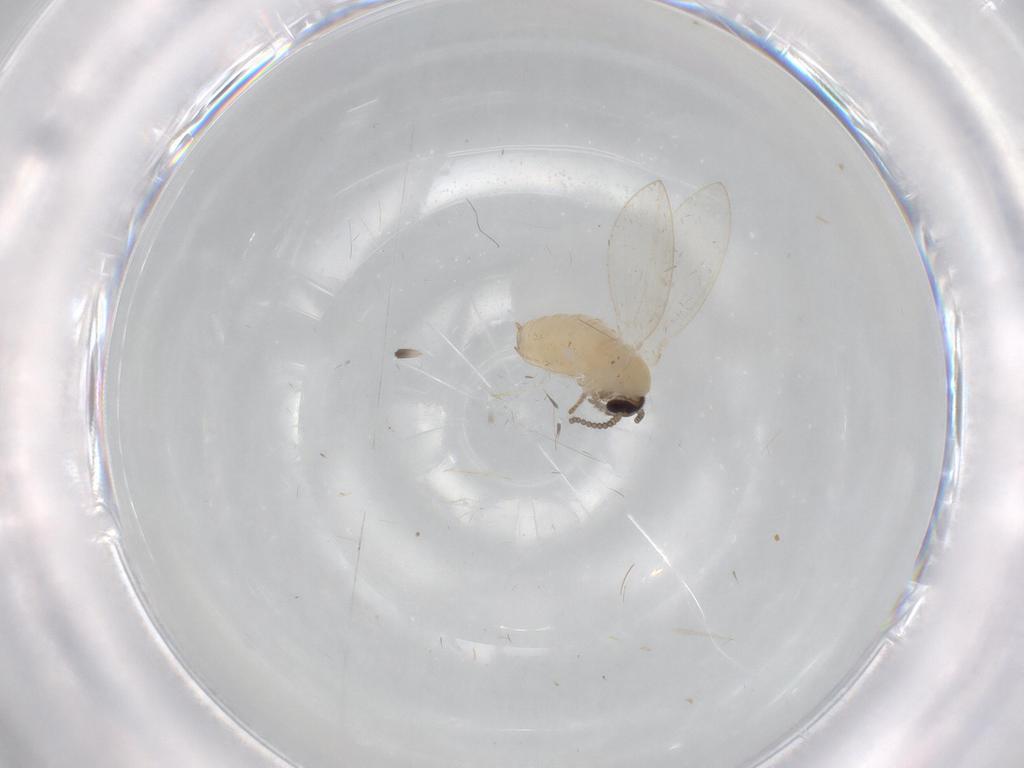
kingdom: Animalia
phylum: Arthropoda
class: Insecta
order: Diptera
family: Psychodidae
